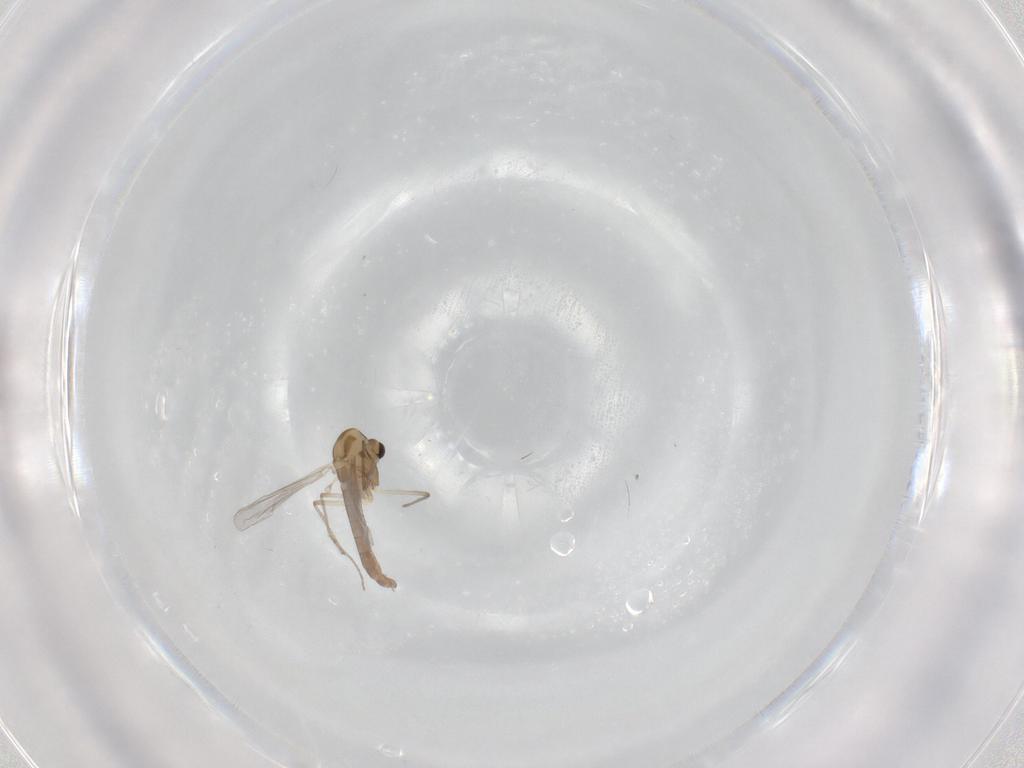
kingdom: Animalia
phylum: Arthropoda
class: Insecta
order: Diptera
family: Chironomidae
